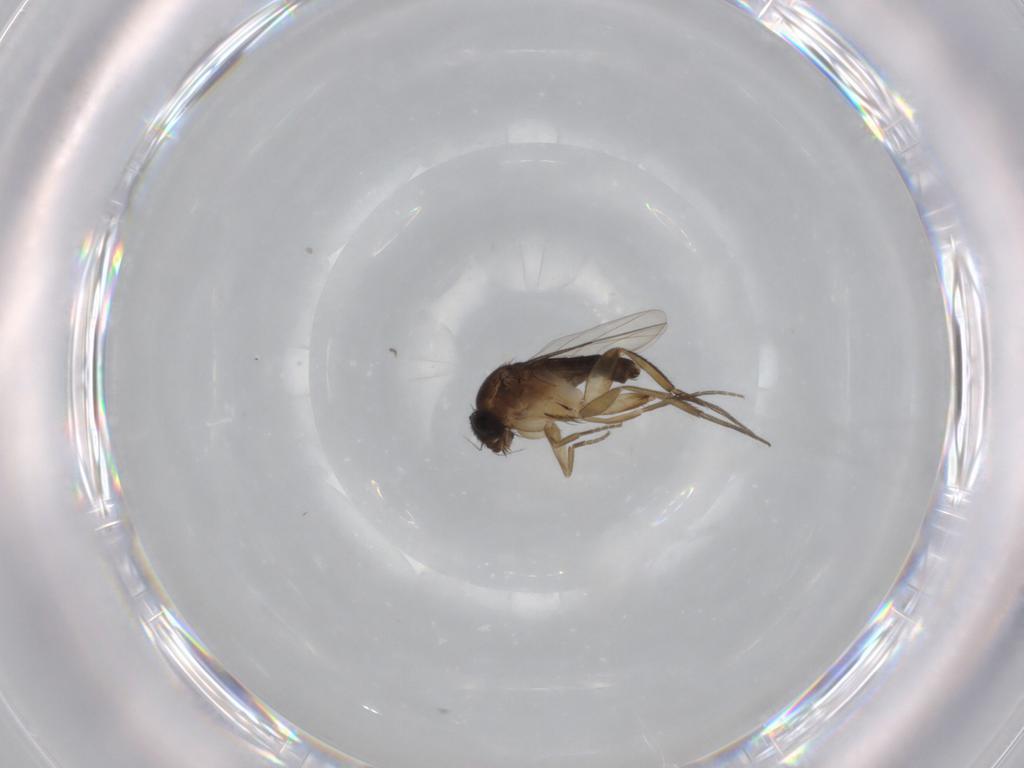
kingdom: Animalia
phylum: Arthropoda
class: Insecta
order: Diptera
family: Phoridae
